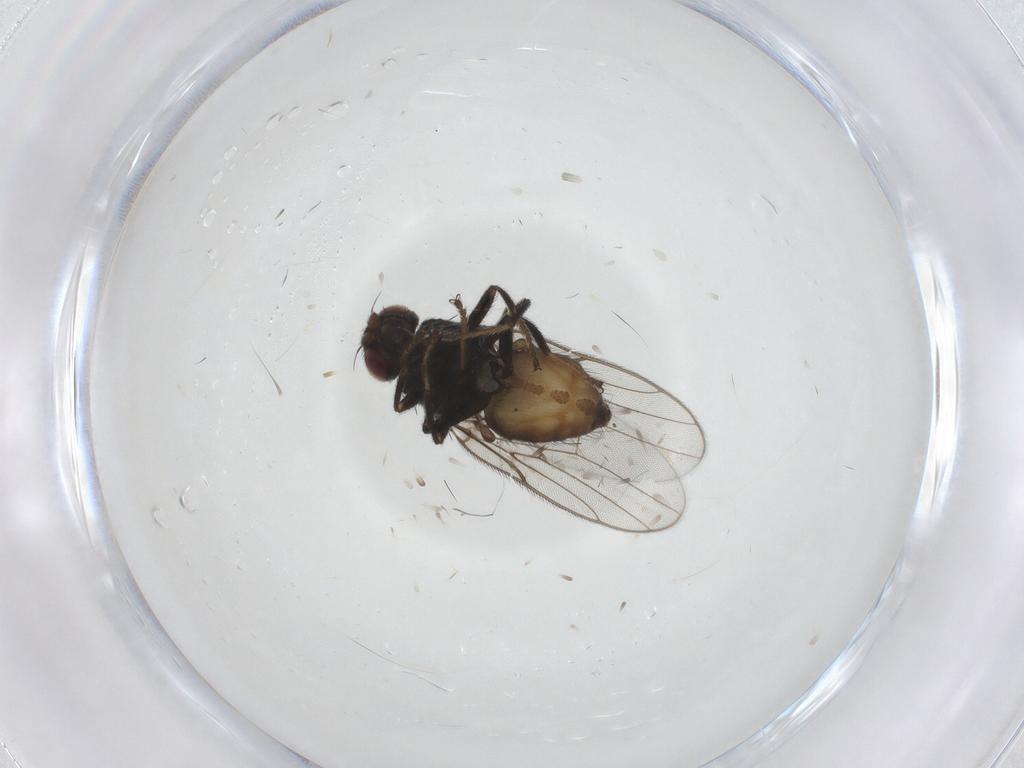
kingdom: Animalia
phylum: Arthropoda
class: Insecta
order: Diptera
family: Chloropidae
